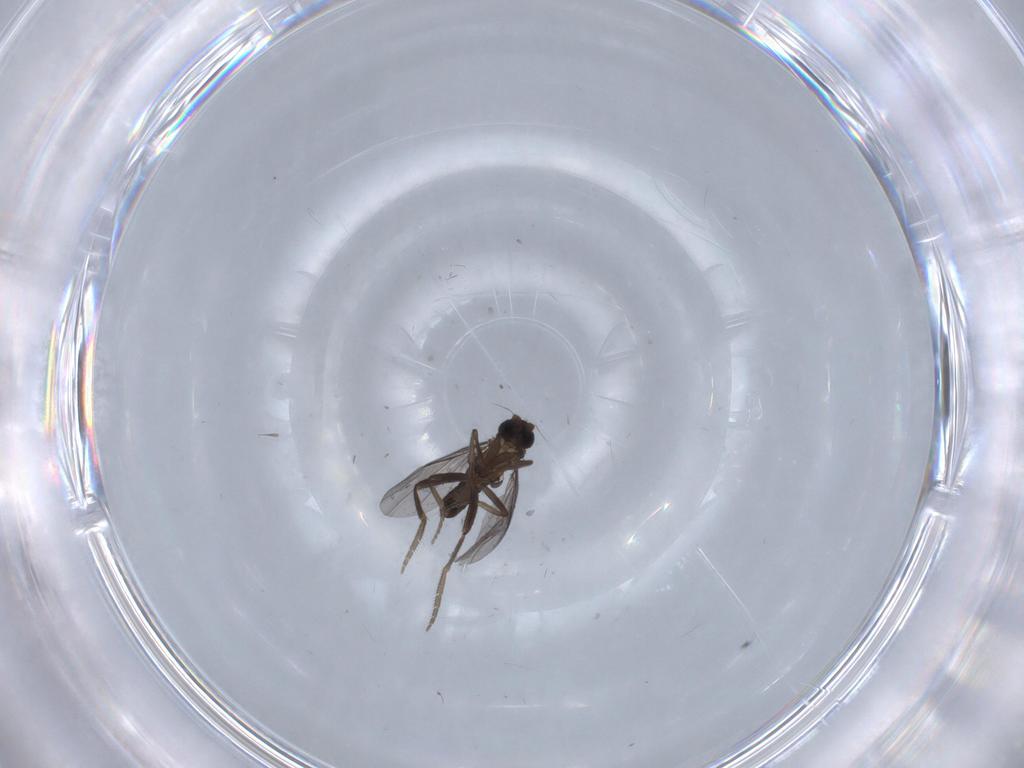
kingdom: Animalia
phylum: Arthropoda
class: Insecta
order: Diptera
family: Phoridae
